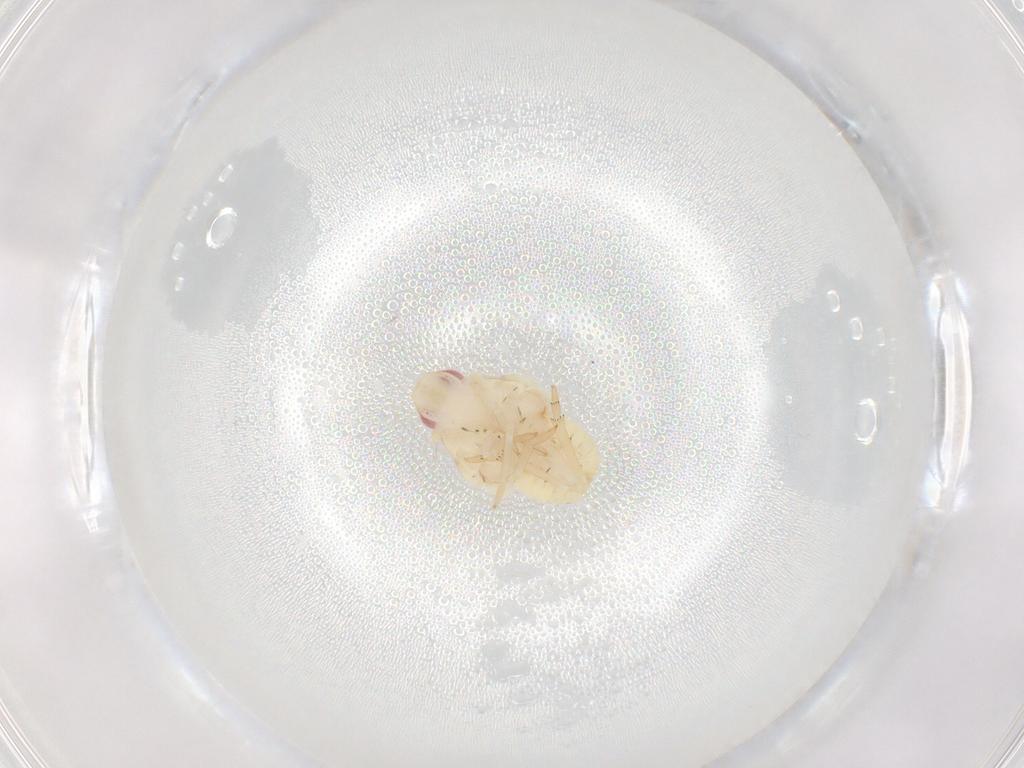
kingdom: Animalia
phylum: Arthropoda
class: Insecta
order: Hemiptera
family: Flatidae
